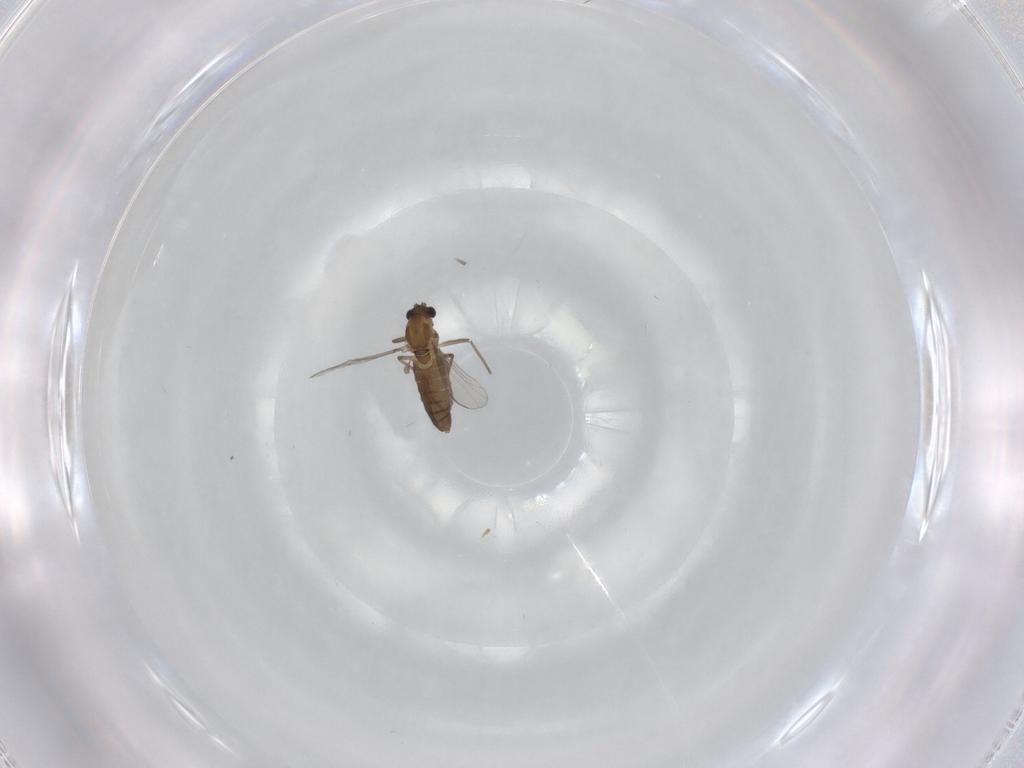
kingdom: Animalia
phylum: Arthropoda
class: Insecta
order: Diptera
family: Chironomidae
